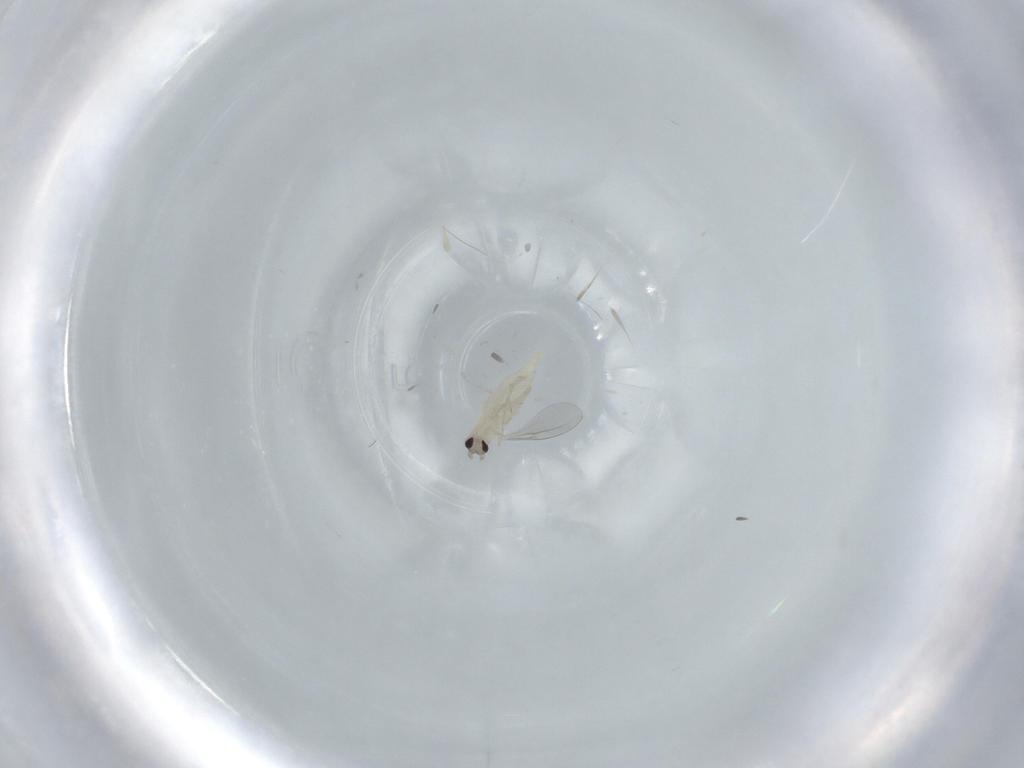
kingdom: Animalia
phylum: Arthropoda
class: Insecta
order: Diptera
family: Cecidomyiidae
